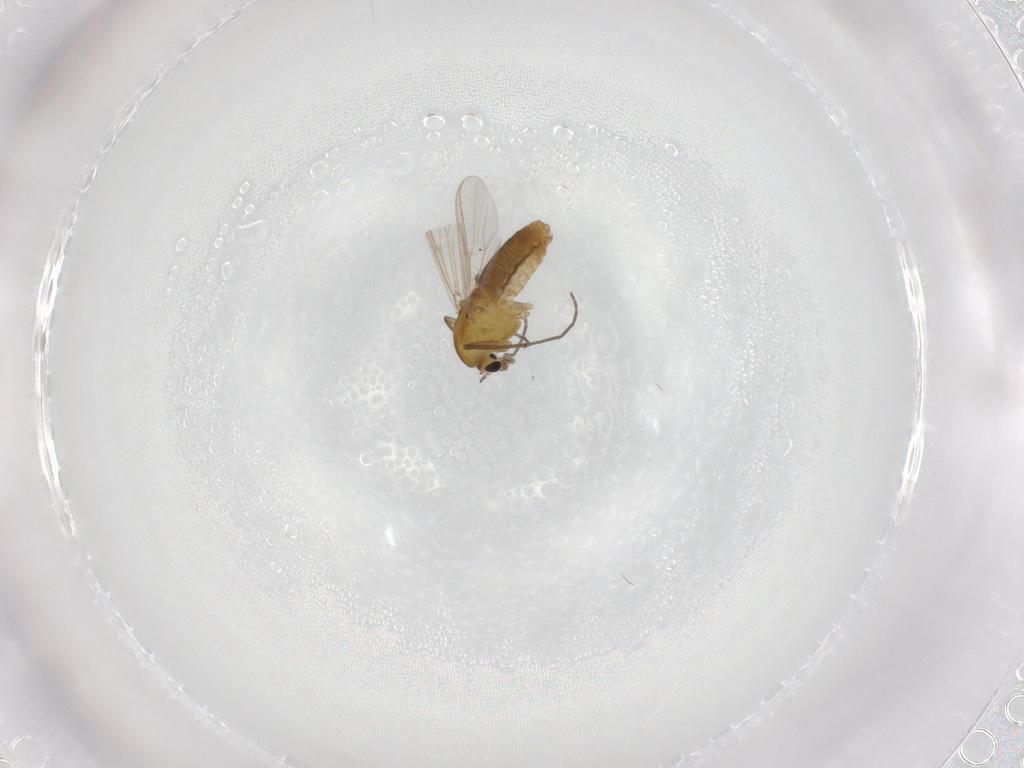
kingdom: Animalia
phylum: Arthropoda
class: Insecta
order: Diptera
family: Chironomidae
